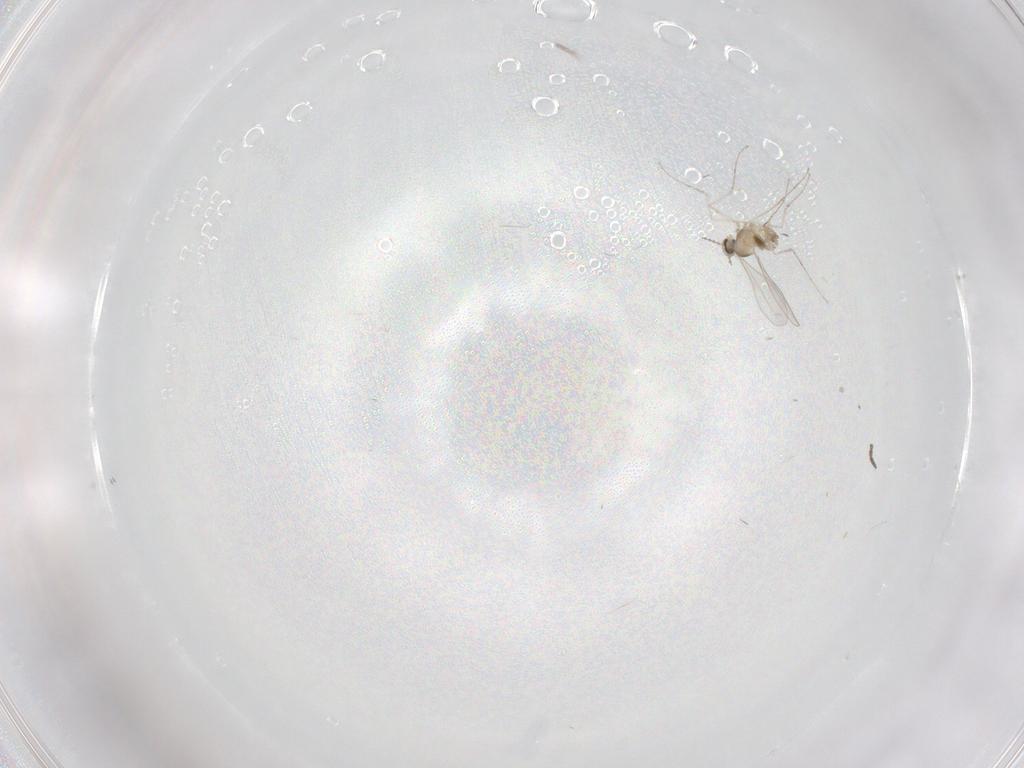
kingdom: Animalia
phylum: Arthropoda
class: Insecta
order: Diptera
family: Cecidomyiidae
